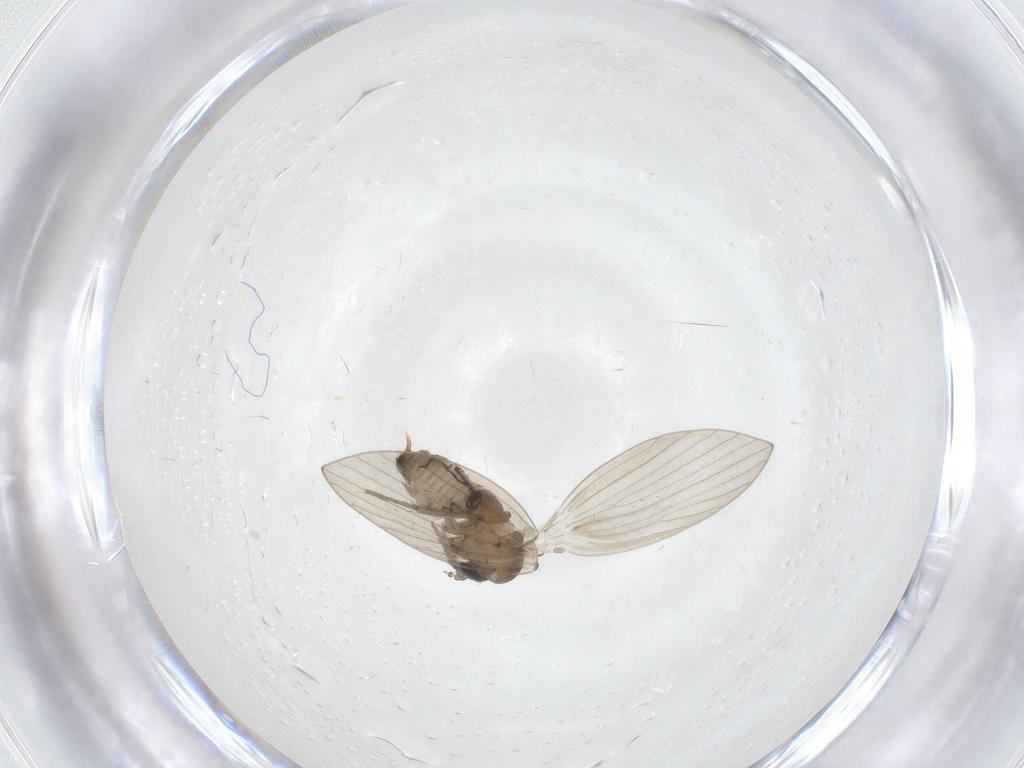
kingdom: Animalia
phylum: Arthropoda
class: Insecta
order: Diptera
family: Psychodidae
